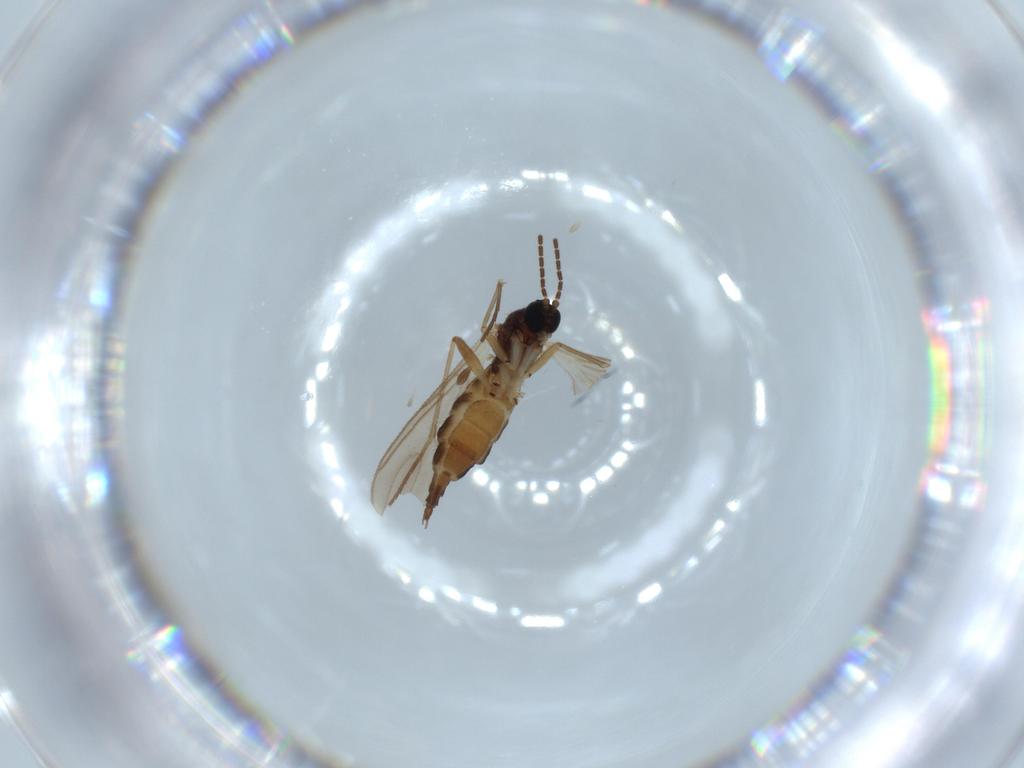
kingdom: Animalia
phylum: Arthropoda
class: Insecta
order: Diptera
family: Sciaridae
